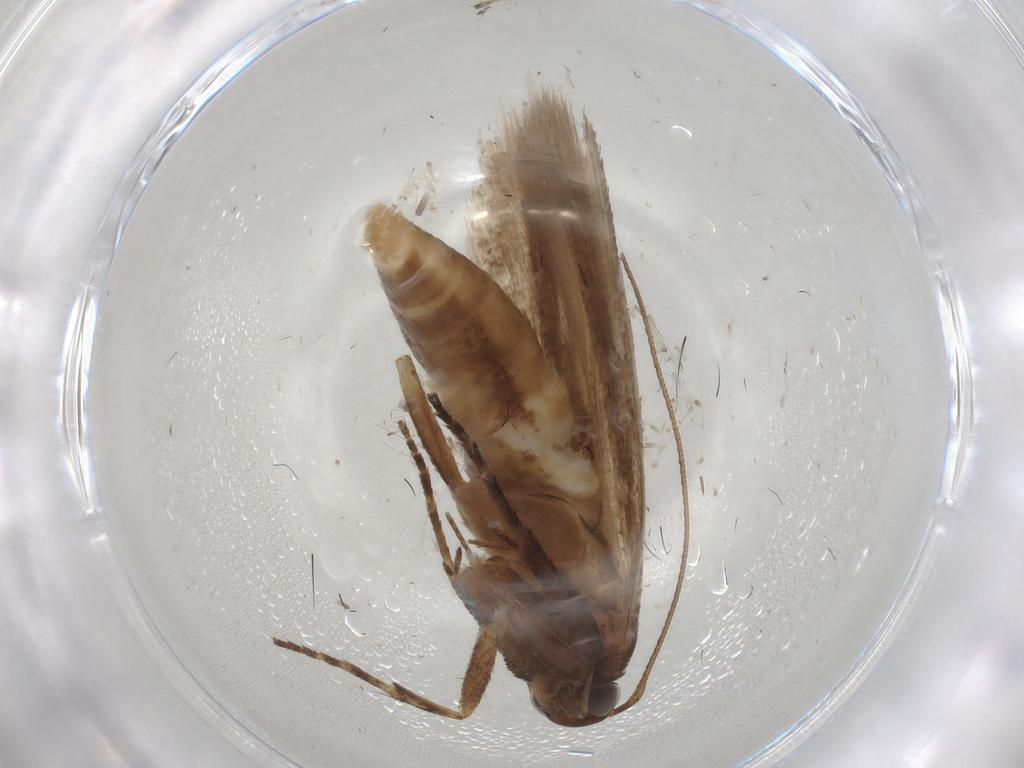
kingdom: Animalia
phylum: Arthropoda
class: Insecta
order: Lepidoptera
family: Gelechiidae
